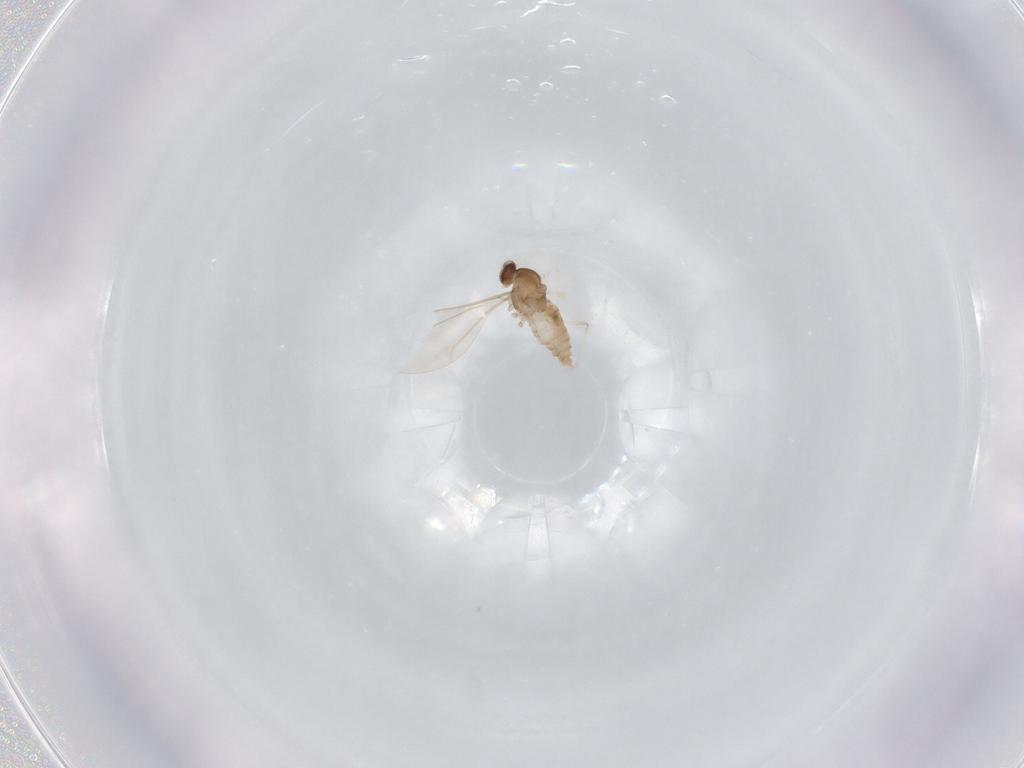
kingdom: Animalia
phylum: Arthropoda
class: Insecta
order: Diptera
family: Cecidomyiidae
